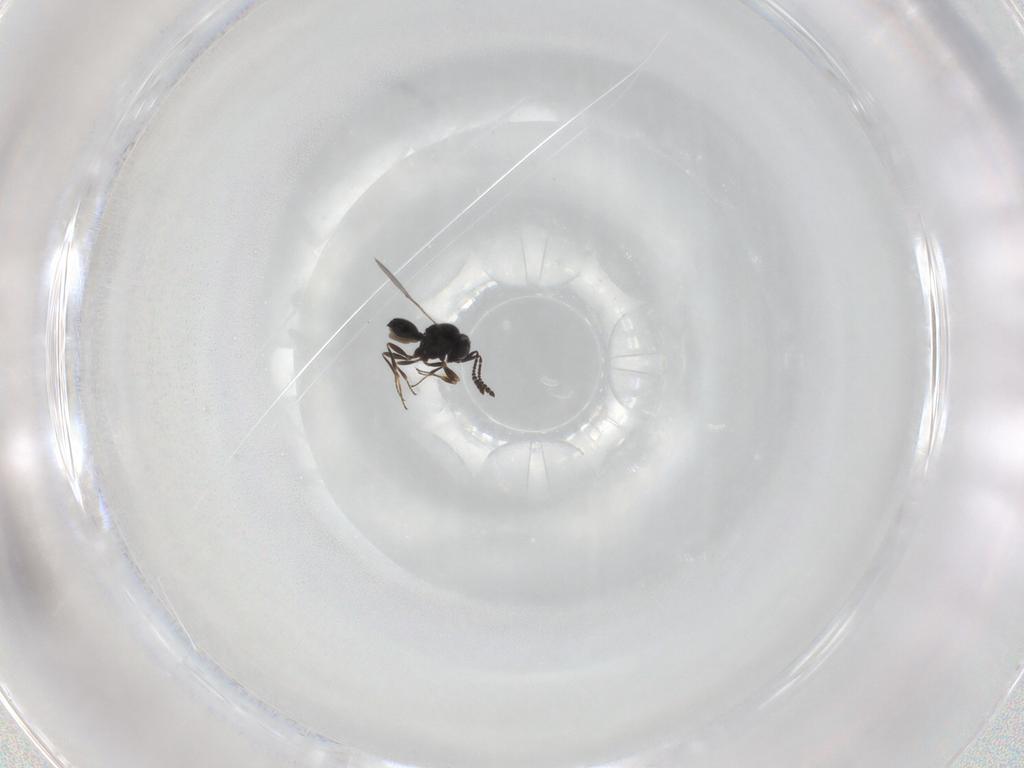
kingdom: Animalia
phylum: Arthropoda
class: Insecta
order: Hymenoptera
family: Scelionidae
